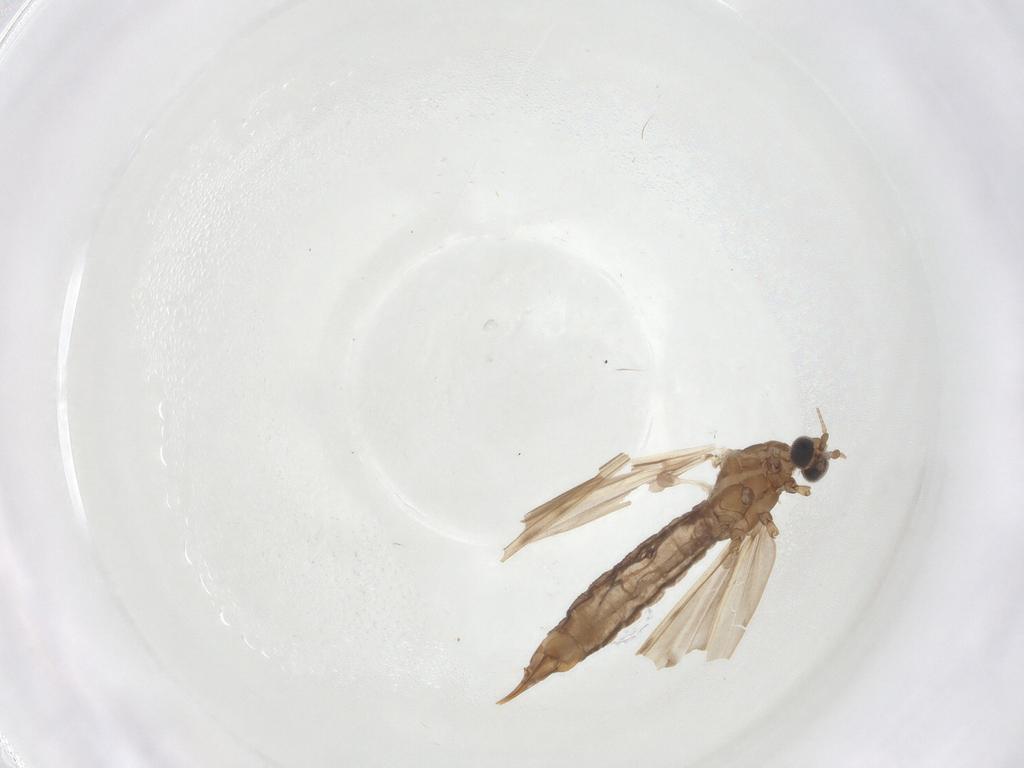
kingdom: Animalia
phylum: Arthropoda
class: Insecta
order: Diptera
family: Limoniidae
